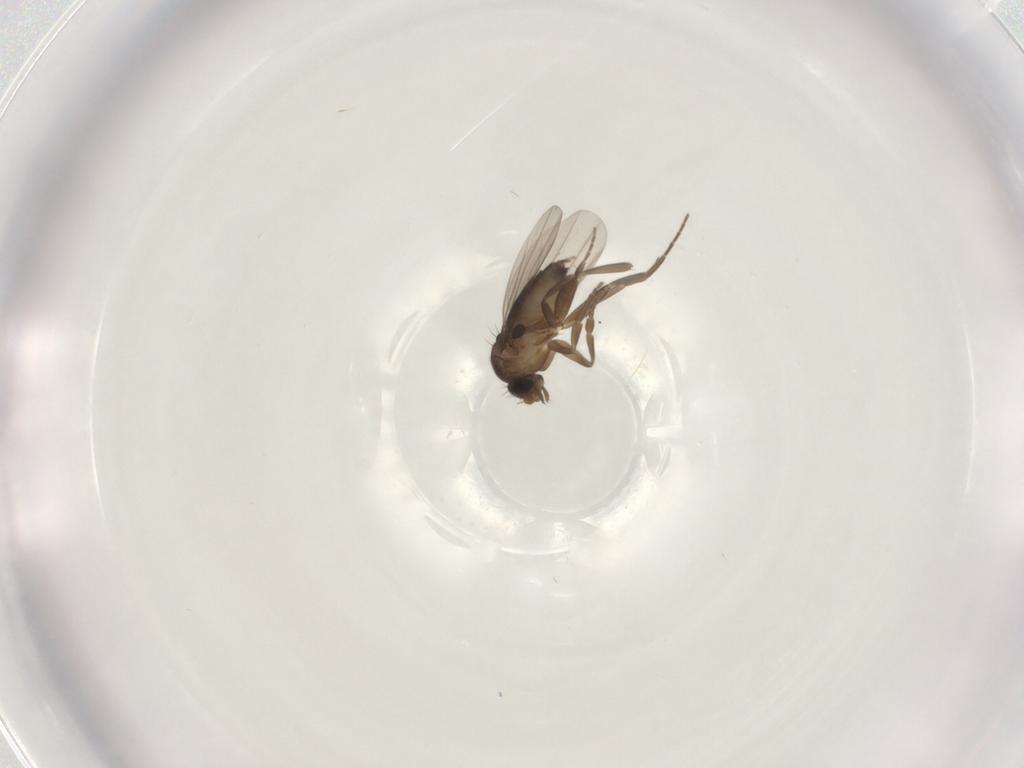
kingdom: Animalia
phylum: Arthropoda
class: Insecta
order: Diptera
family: Phoridae
